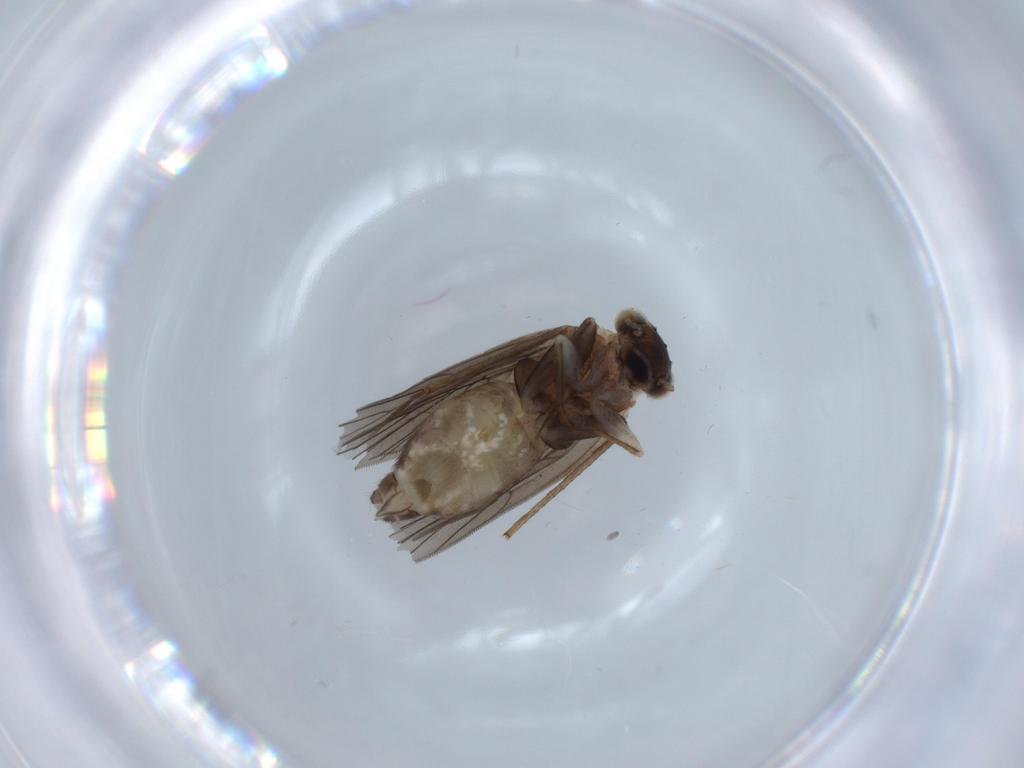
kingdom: Animalia
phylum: Arthropoda
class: Insecta
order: Psocodea
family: Lepidopsocidae
